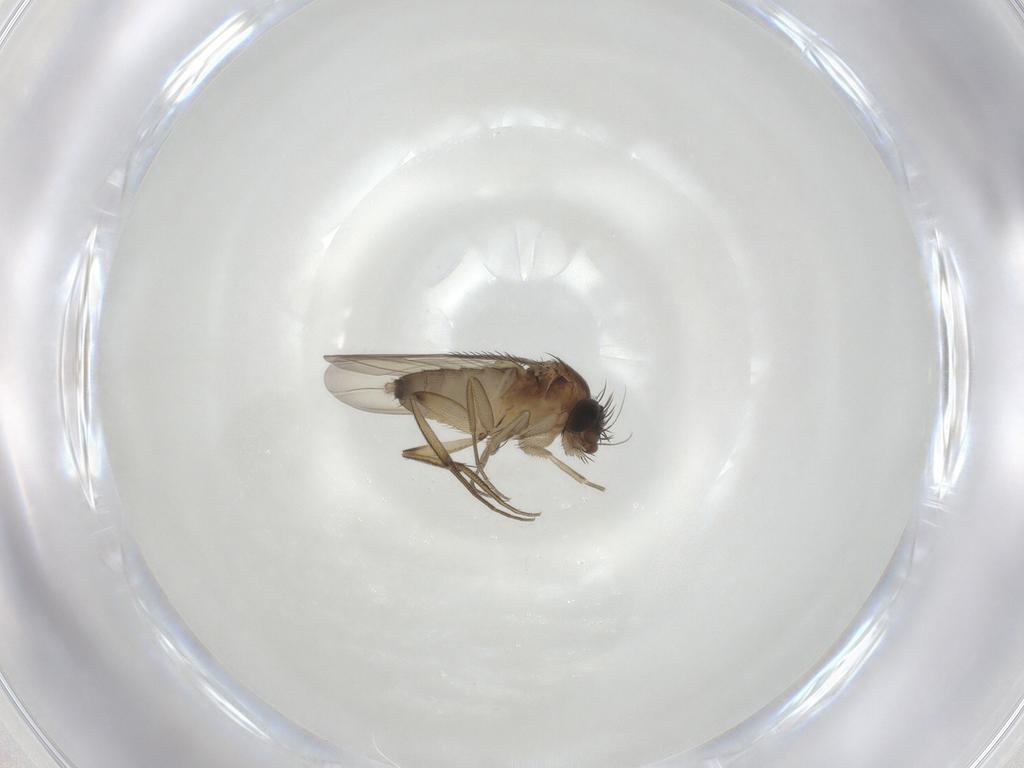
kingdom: Animalia
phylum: Arthropoda
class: Insecta
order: Diptera
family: Phoridae
